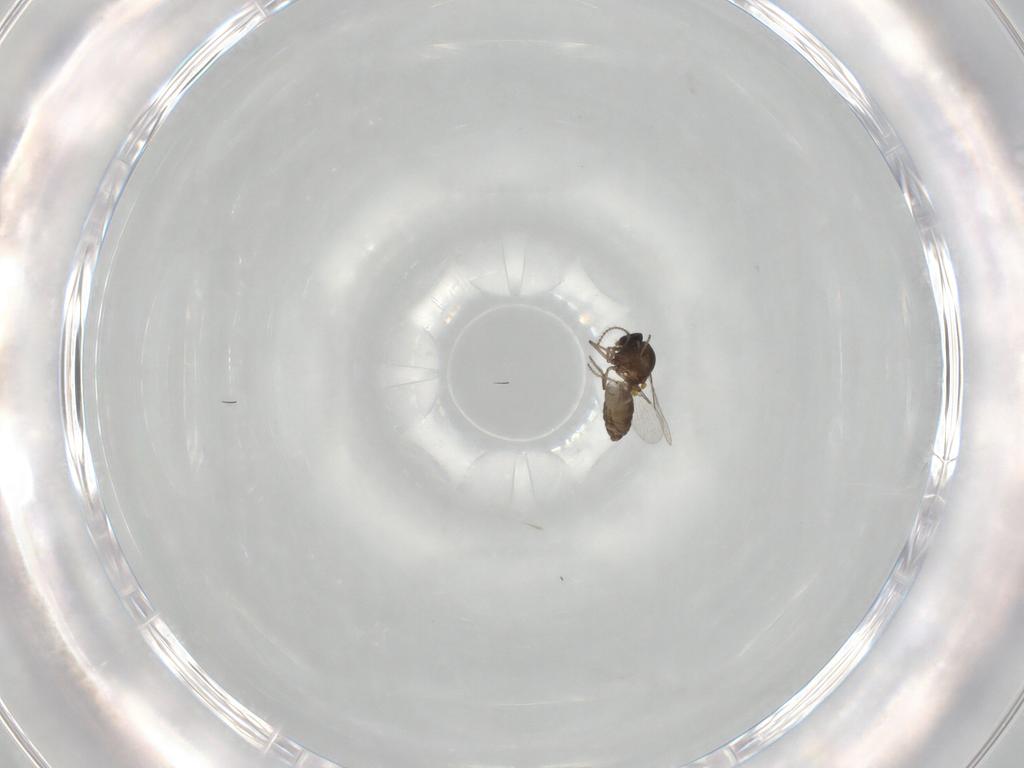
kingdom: Animalia
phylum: Arthropoda
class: Insecta
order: Diptera
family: Ceratopogonidae
